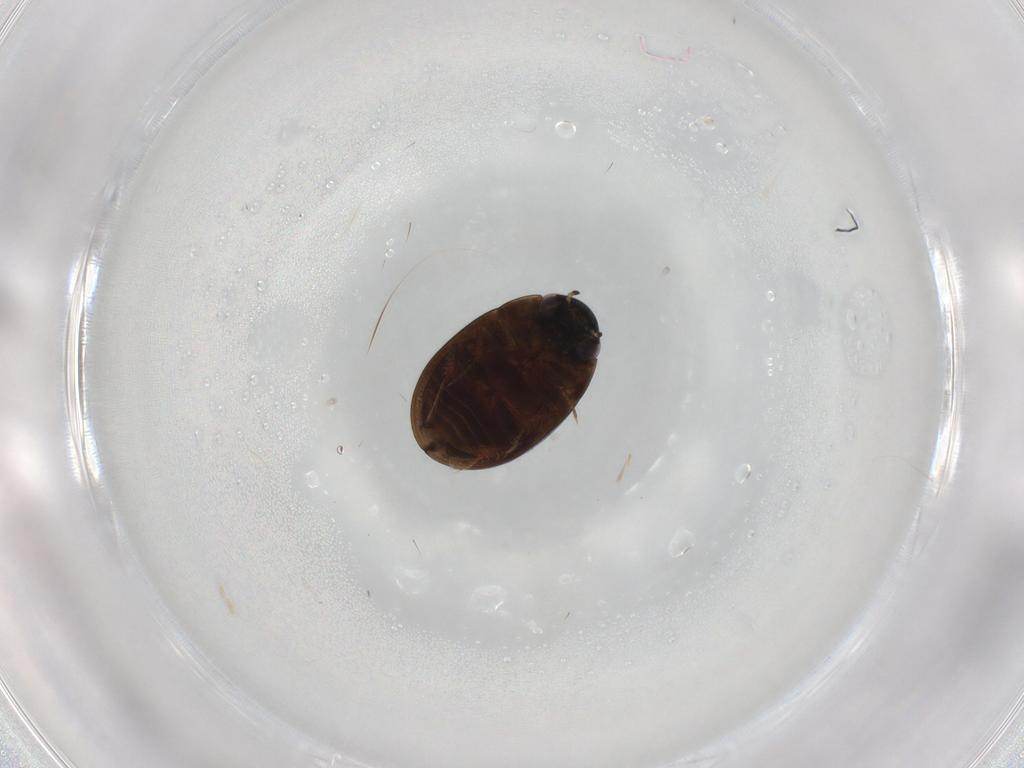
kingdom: Animalia
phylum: Arthropoda
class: Insecta
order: Coleoptera
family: Hydrophilidae
